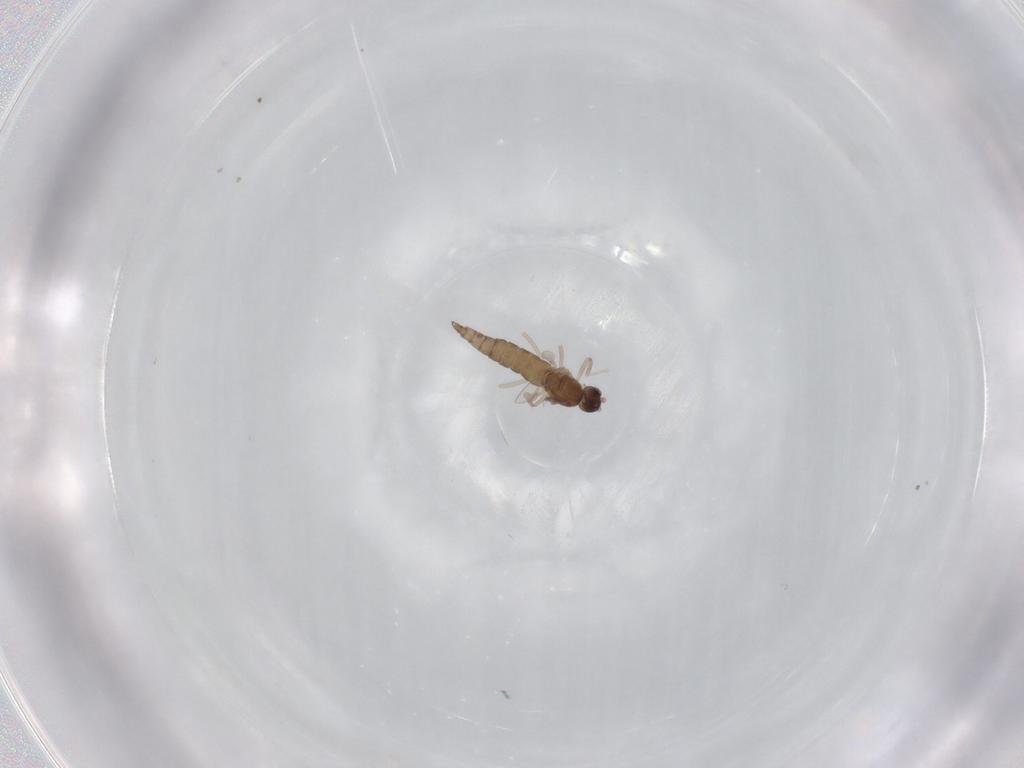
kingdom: Animalia
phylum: Arthropoda
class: Insecta
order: Diptera
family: Cecidomyiidae
